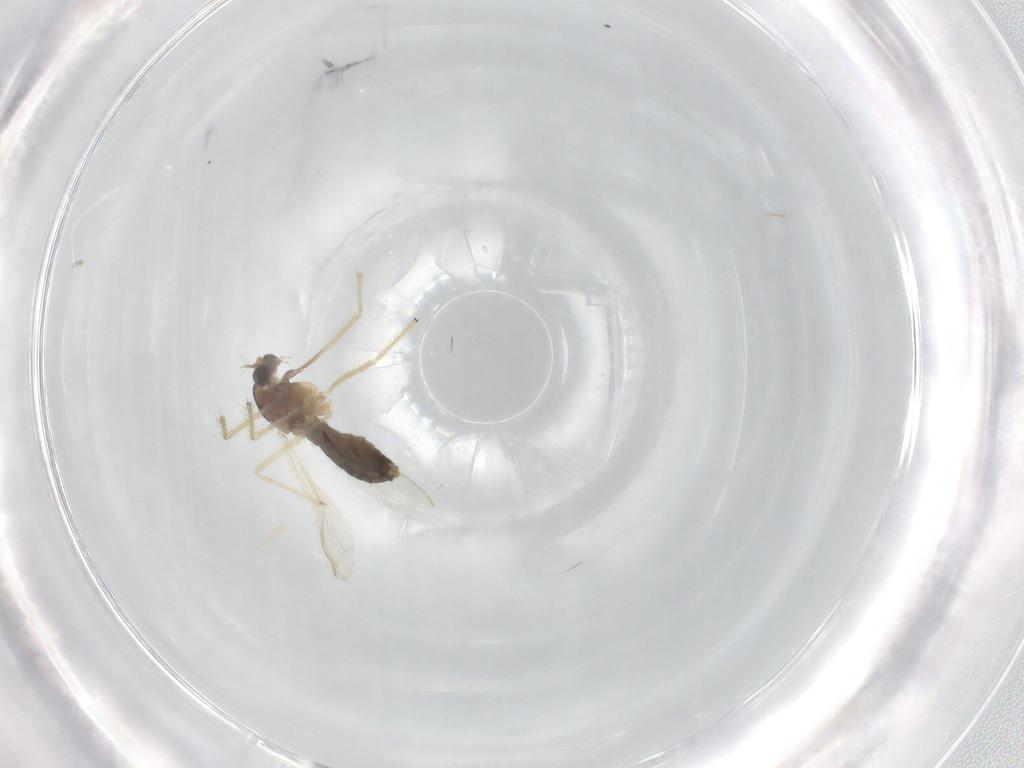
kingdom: Animalia
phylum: Arthropoda
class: Insecta
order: Diptera
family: Chironomidae
